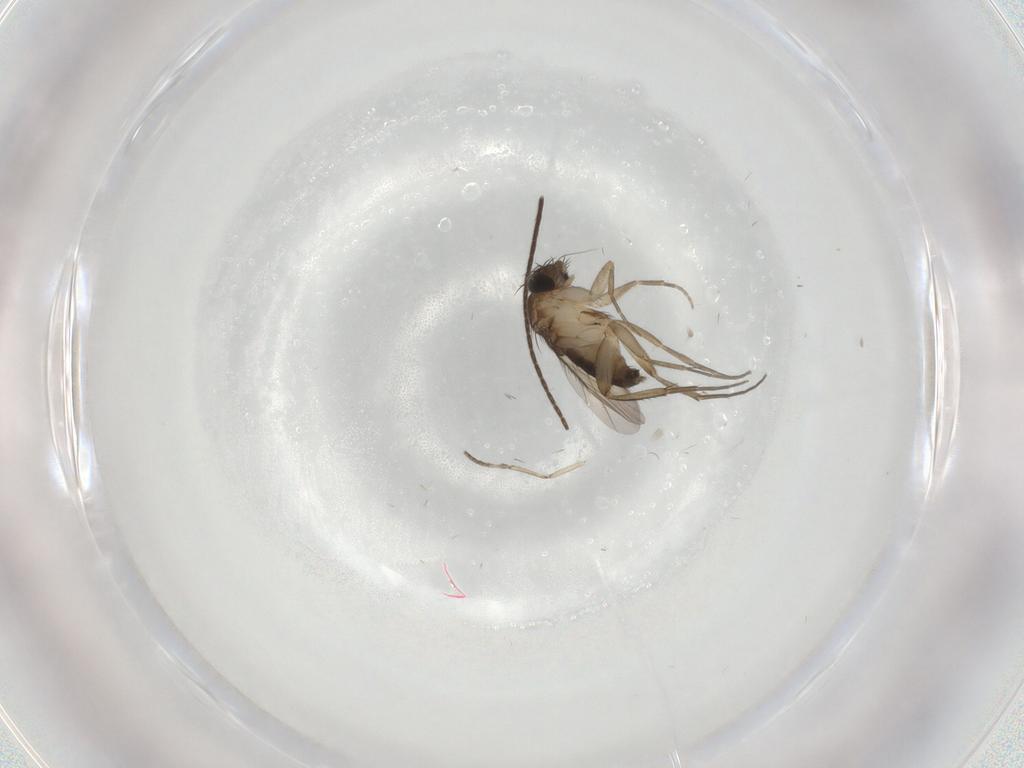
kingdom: Animalia
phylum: Arthropoda
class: Insecta
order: Diptera
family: Phoridae
